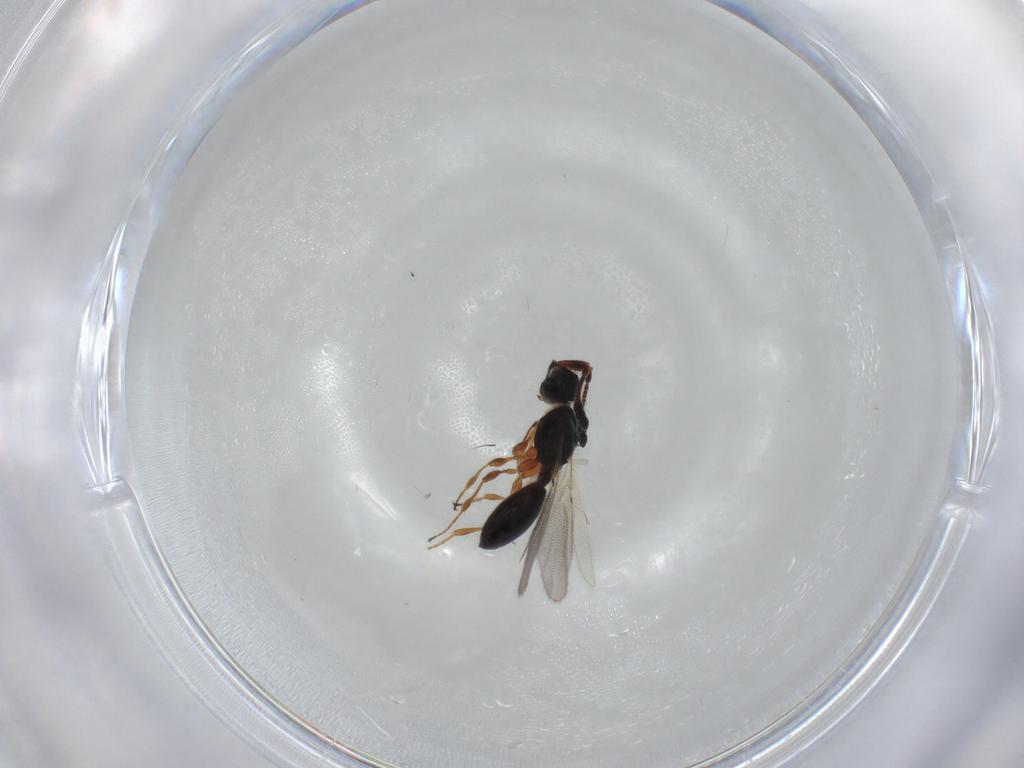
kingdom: Animalia
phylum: Arthropoda
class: Insecta
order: Hymenoptera
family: Diapriidae
